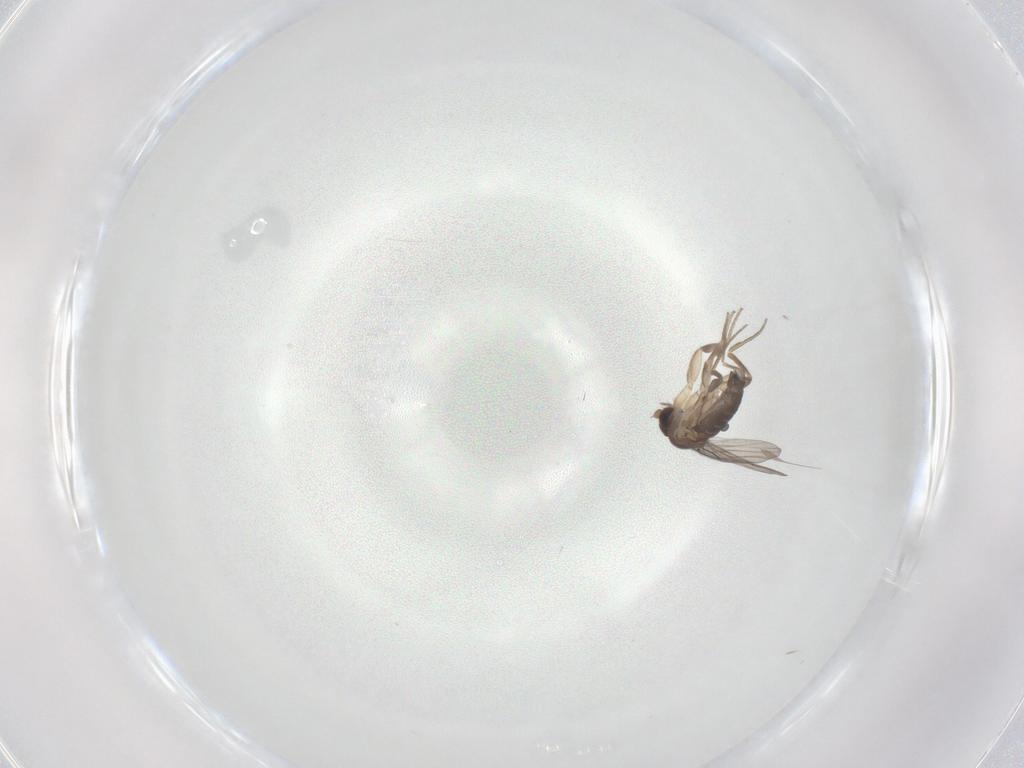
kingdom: Animalia
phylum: Arthropoda
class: Insecta
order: Diptera
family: Phoridae
